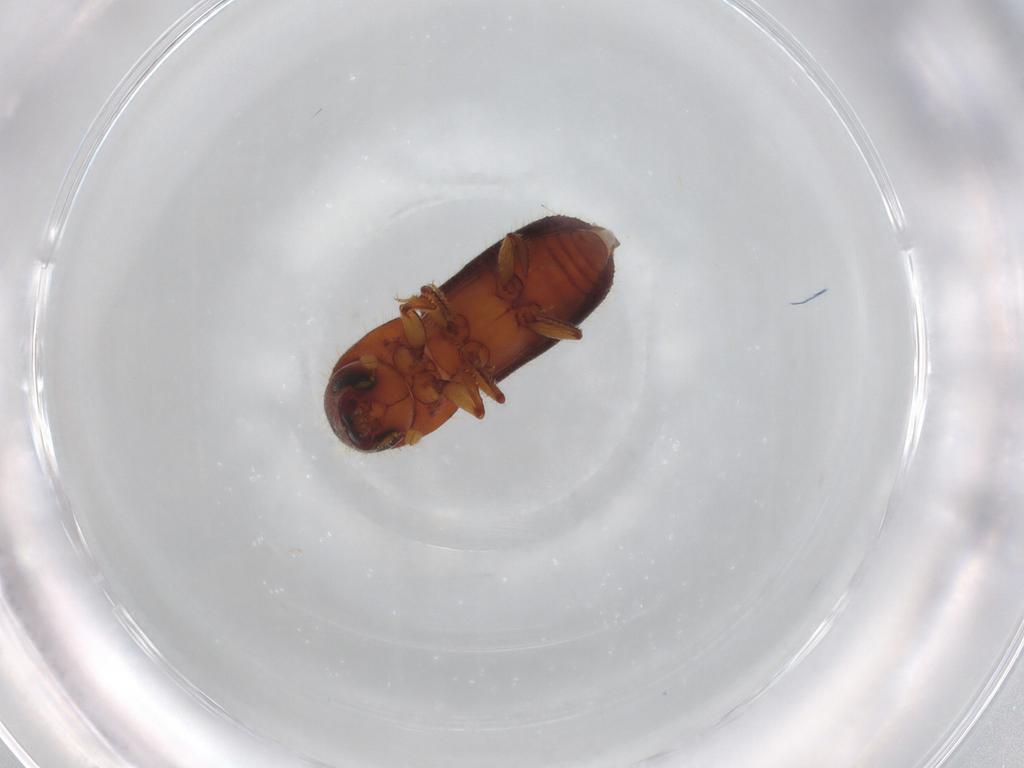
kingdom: Animalia
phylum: Arthropoda
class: Insecta
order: Coleoptera
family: Curculionidae
